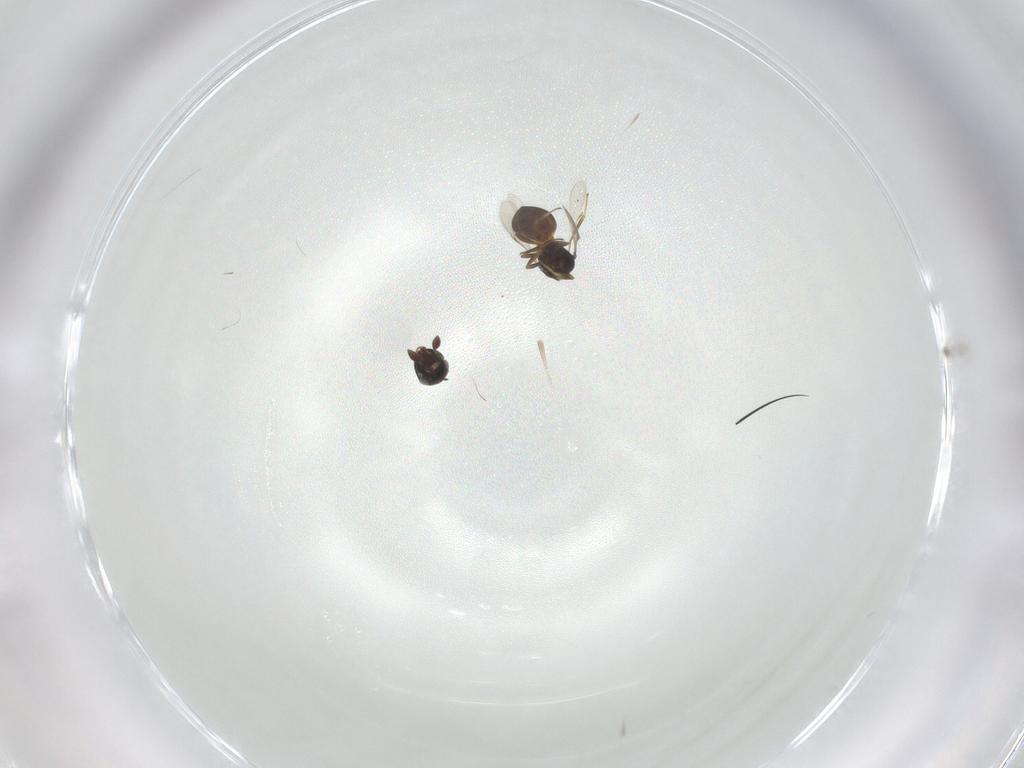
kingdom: Animalia
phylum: Arthropoda
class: Insecta
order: Hymenoptera
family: Scelionidae
